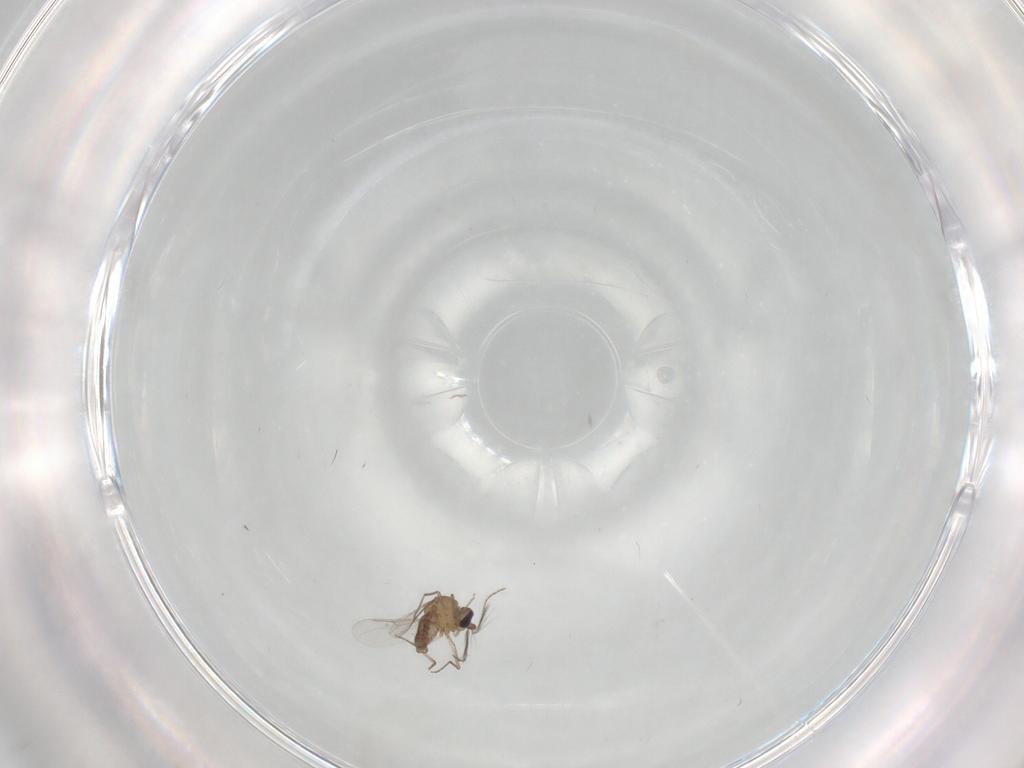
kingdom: Animalia
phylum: Arthropoda
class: Insecta
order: Diptera
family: Ceratopogonidae
